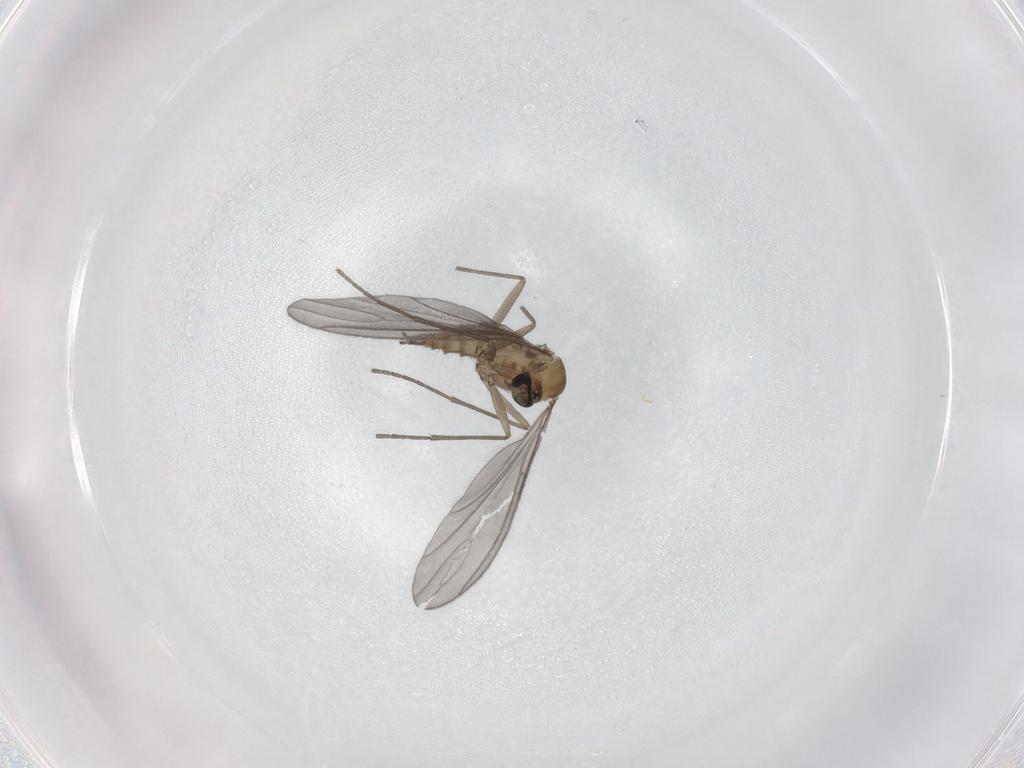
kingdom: Animalia
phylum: Arthropoda
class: Insecta
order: Diptera
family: Sciaridae
